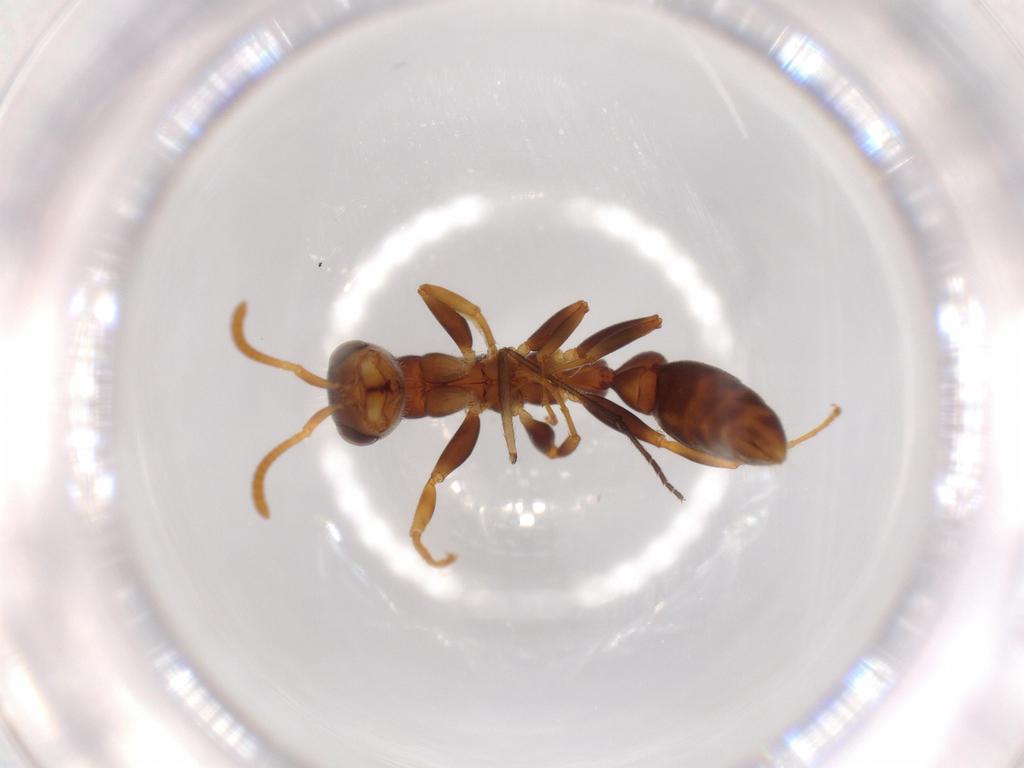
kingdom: Animalia
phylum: Arthropoda
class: Insecta
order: Hymenoptera
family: Formicidae
